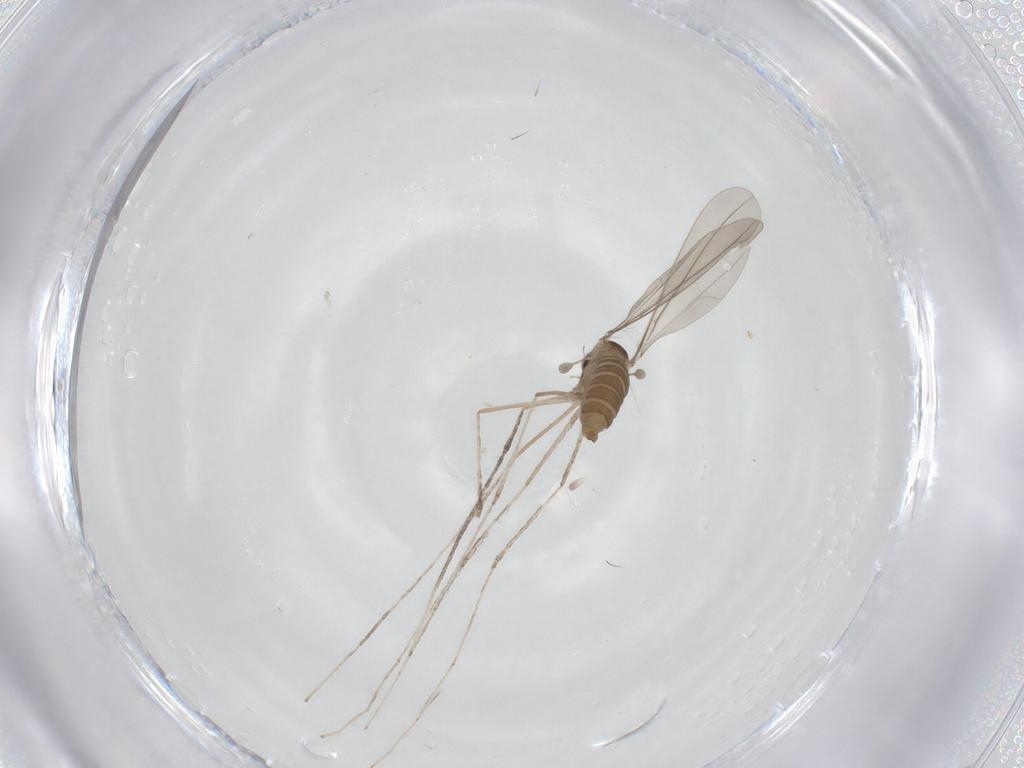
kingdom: Animalia
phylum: Arthropoda
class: Insecta
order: Diptera
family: Cecidomyiidae
